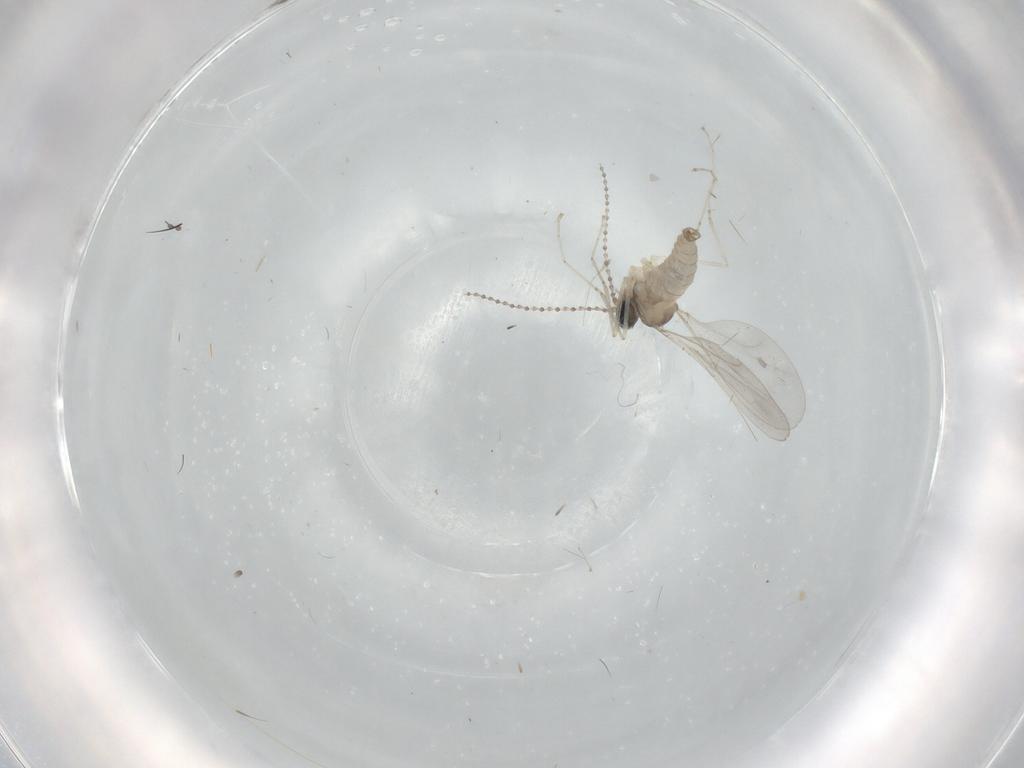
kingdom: Animalia
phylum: Arthropoda
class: Insecta
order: Diptera
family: Cecidomyiidae
